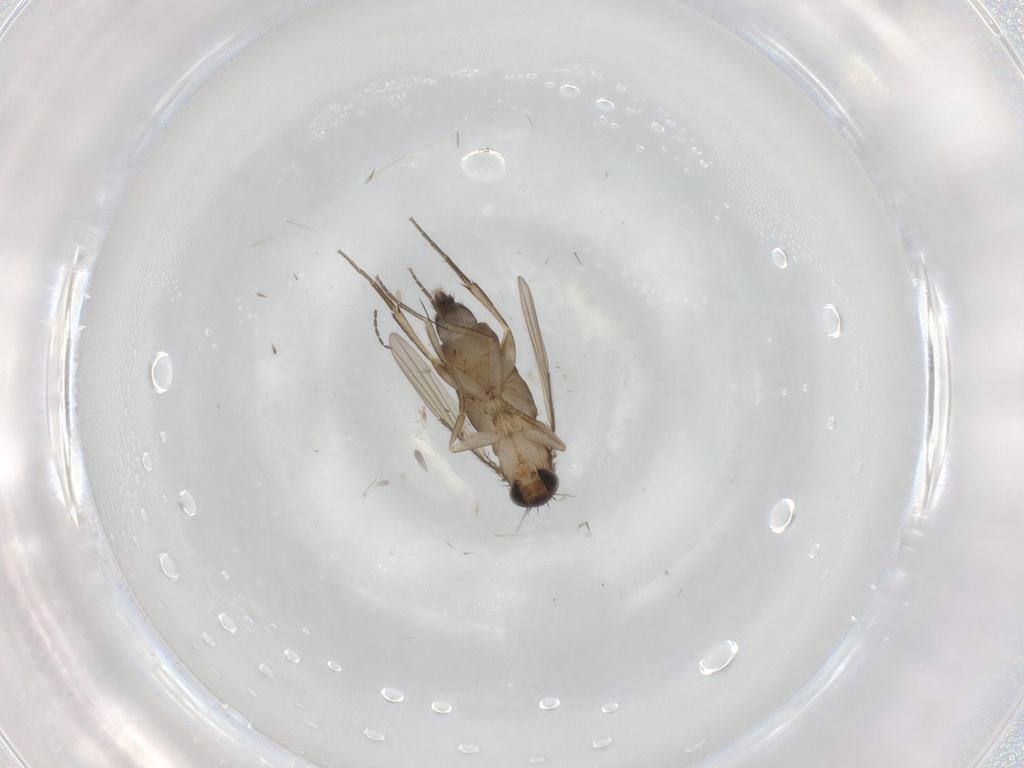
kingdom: Animalia
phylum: Arthropoda
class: Insecta
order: Diptera
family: Phoridae
